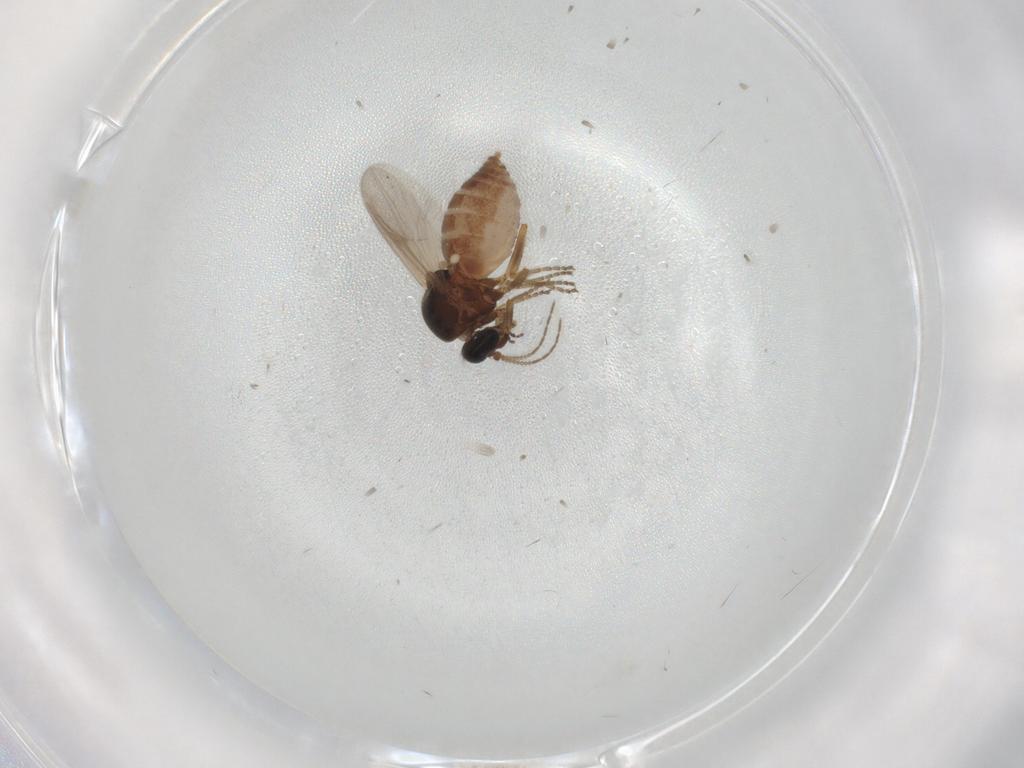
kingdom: Animalia
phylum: Arthropoda
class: Insecta
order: Diptera
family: Ceratopogonidae
